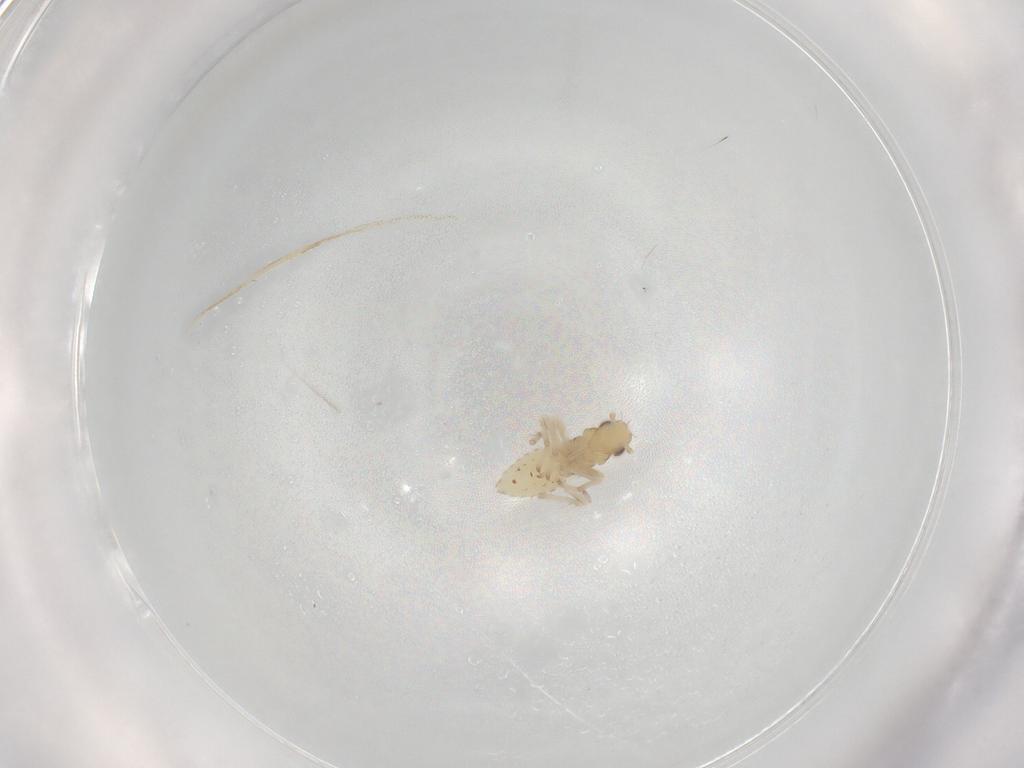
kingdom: Animalia
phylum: Arthropoda
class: Insecta
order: Hemiptera
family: Cicadellidae
